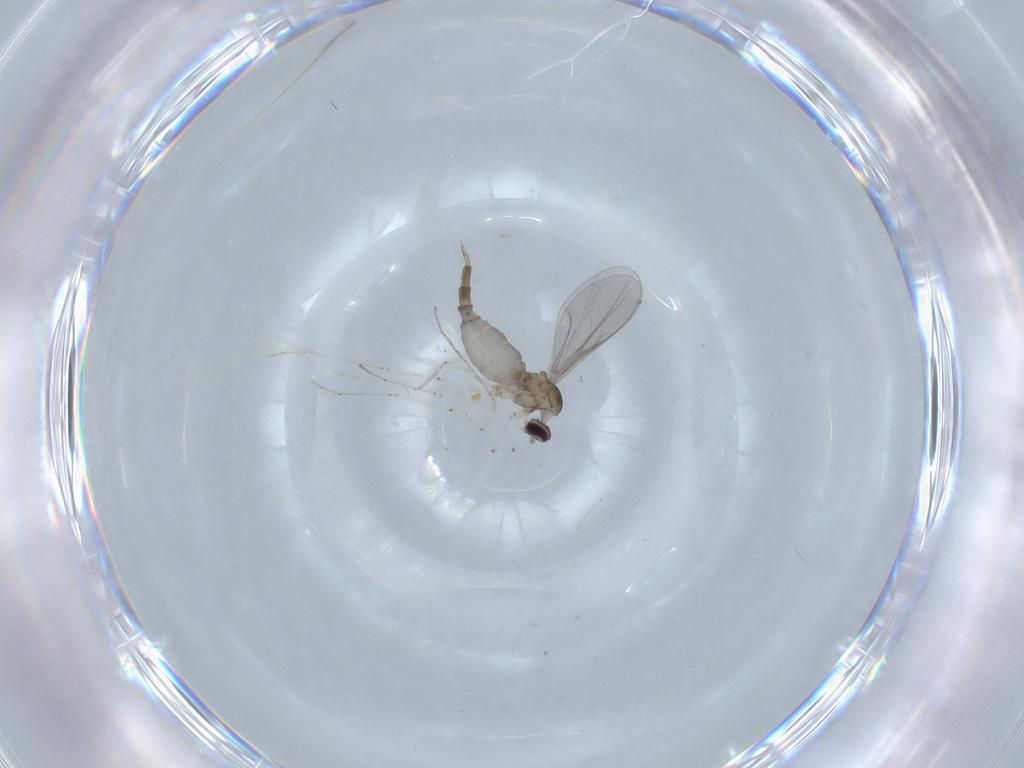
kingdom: Animalia
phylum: Arthropoda
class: Insecta
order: Diptera
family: Cecidomyiidae
